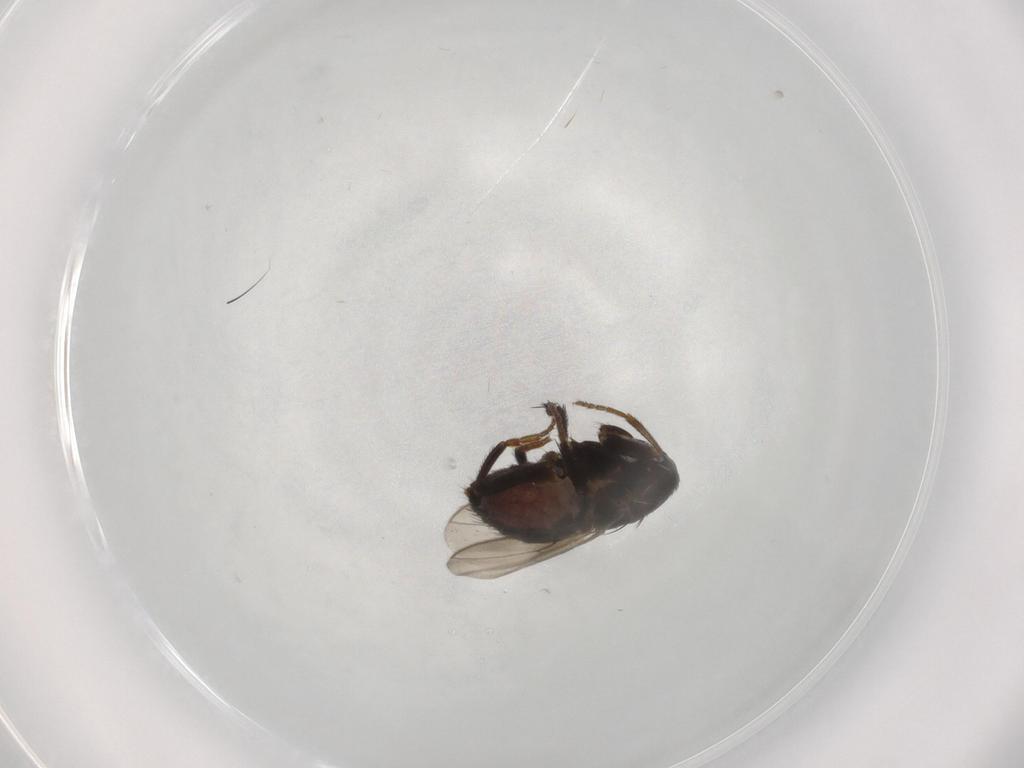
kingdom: Animalia
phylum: Arthropoda
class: Insecta
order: Diptera
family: Sphaeroceridae
